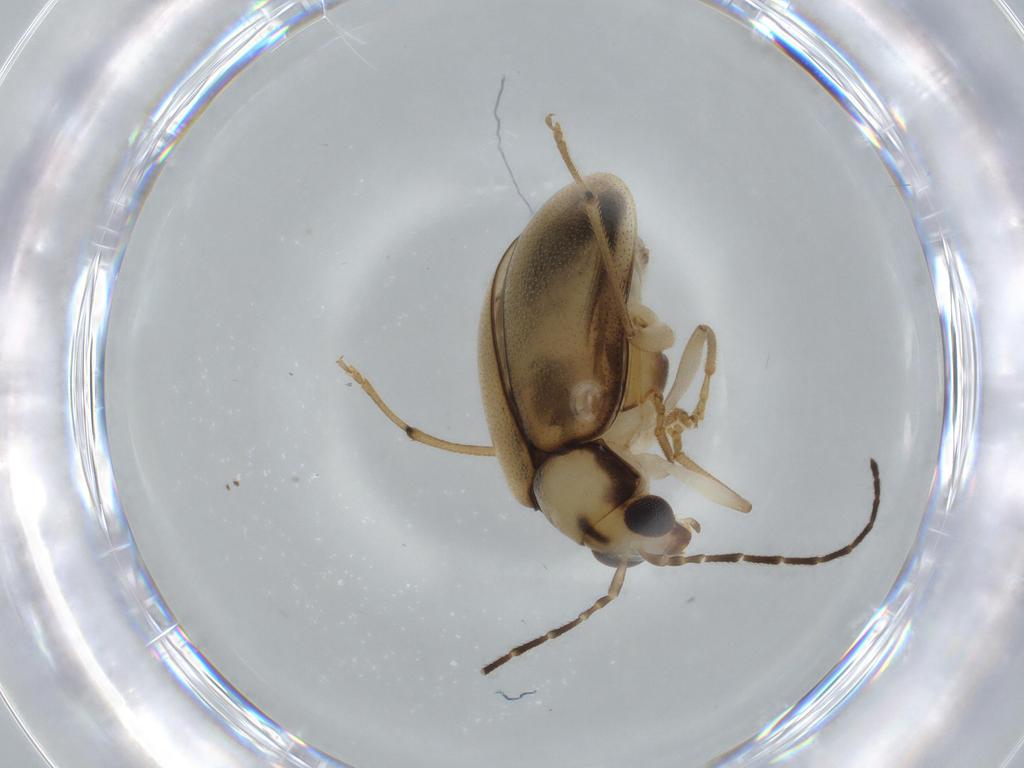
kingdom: Animalia
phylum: Arthropoda
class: Insecta
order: Coleoptera
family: Chrysomelidae
